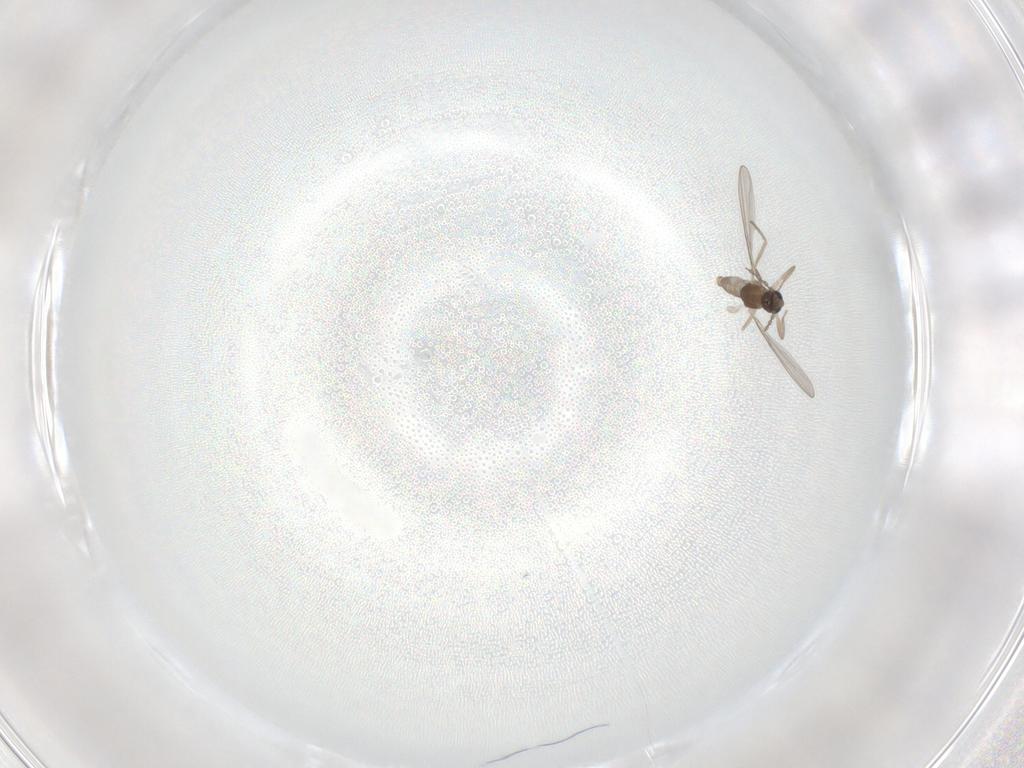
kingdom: Animalia
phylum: Arthropoda
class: Insecta
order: Diptera
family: Cecidomyiidae
